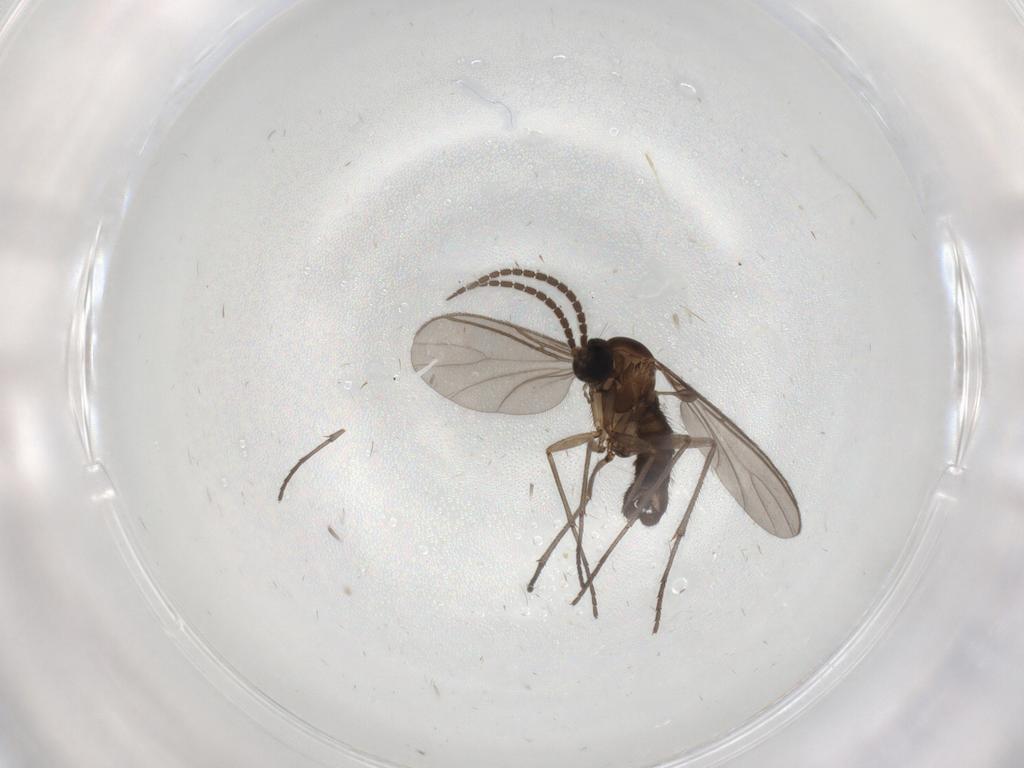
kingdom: Animalia
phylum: Arthropoda
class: Insecta
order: Diptera
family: Sciaridae
